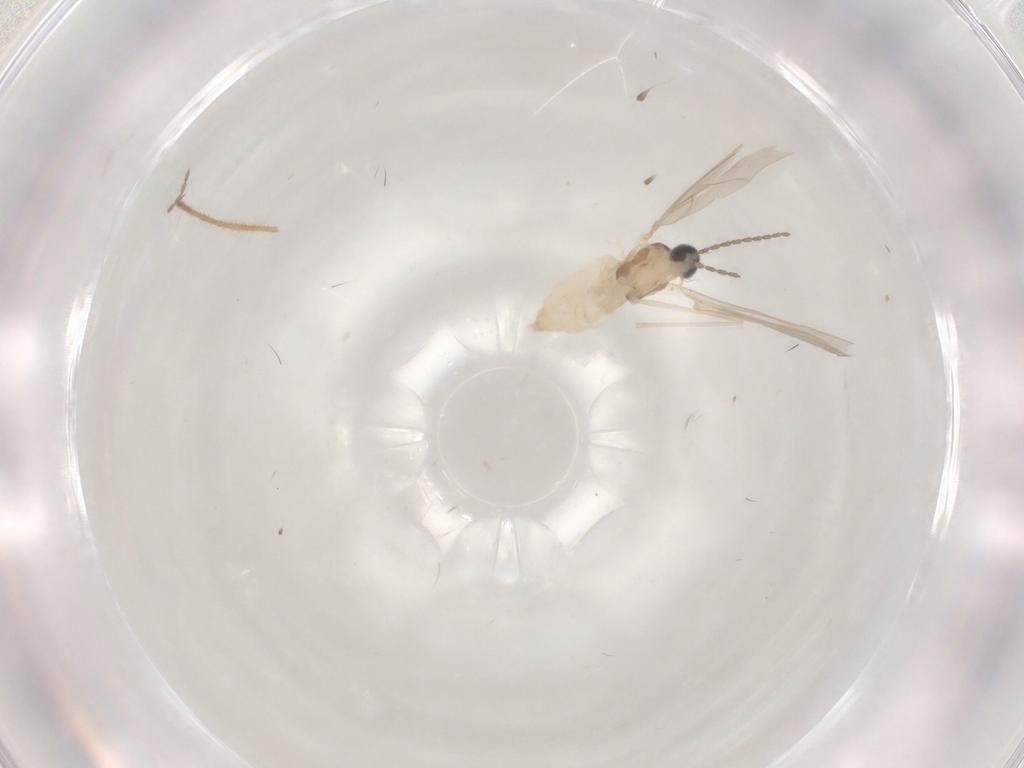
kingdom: Animalia
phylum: Arthropoda
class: Insecta
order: Diptera
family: Cecidomyiidae
